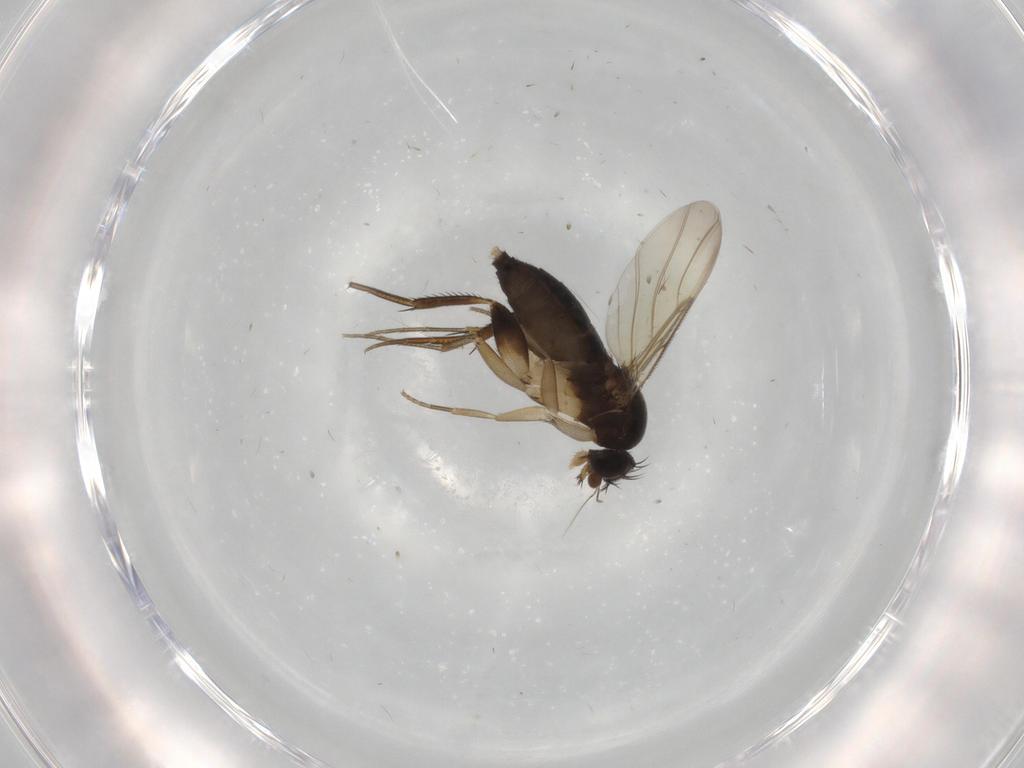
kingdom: Animalia
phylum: Arthropoda
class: Insecta
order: Diptera
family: Phoridae
